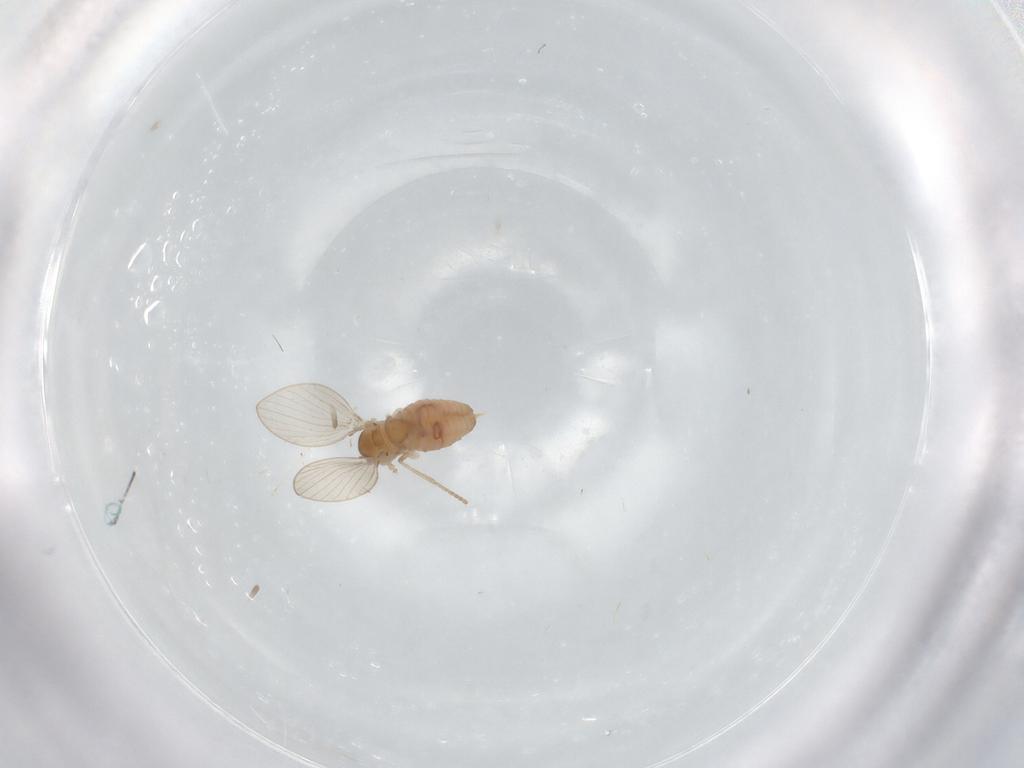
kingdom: Animalia
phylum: Arthropoda
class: Insecta
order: Diptera
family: Psychodidae
